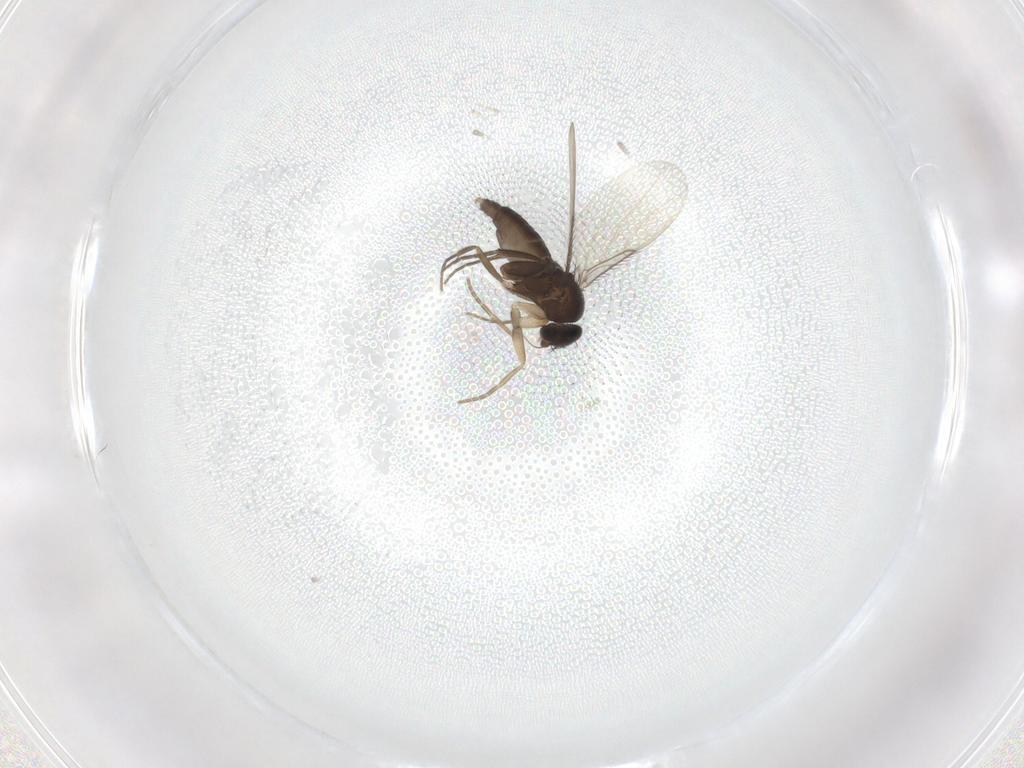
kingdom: Animalia
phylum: Arthropoda
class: Insecta
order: Diptera
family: Phoridae
